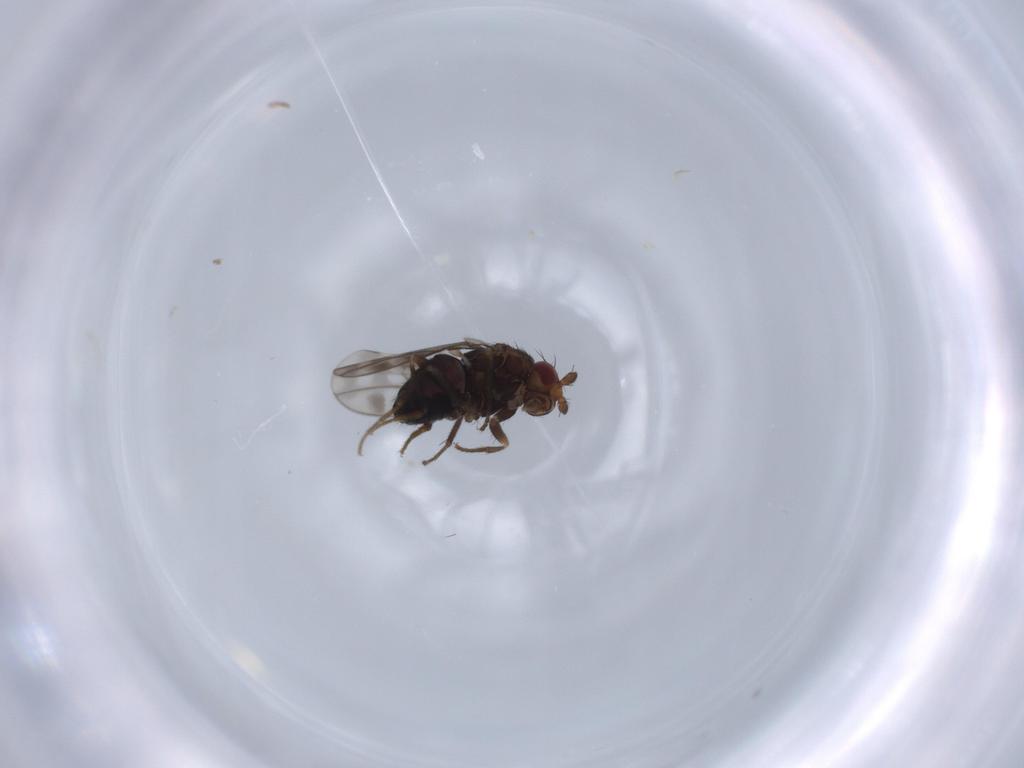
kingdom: Animalia
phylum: Arthropoda
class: Insecta
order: Diptera
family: Sphaeroceridae
